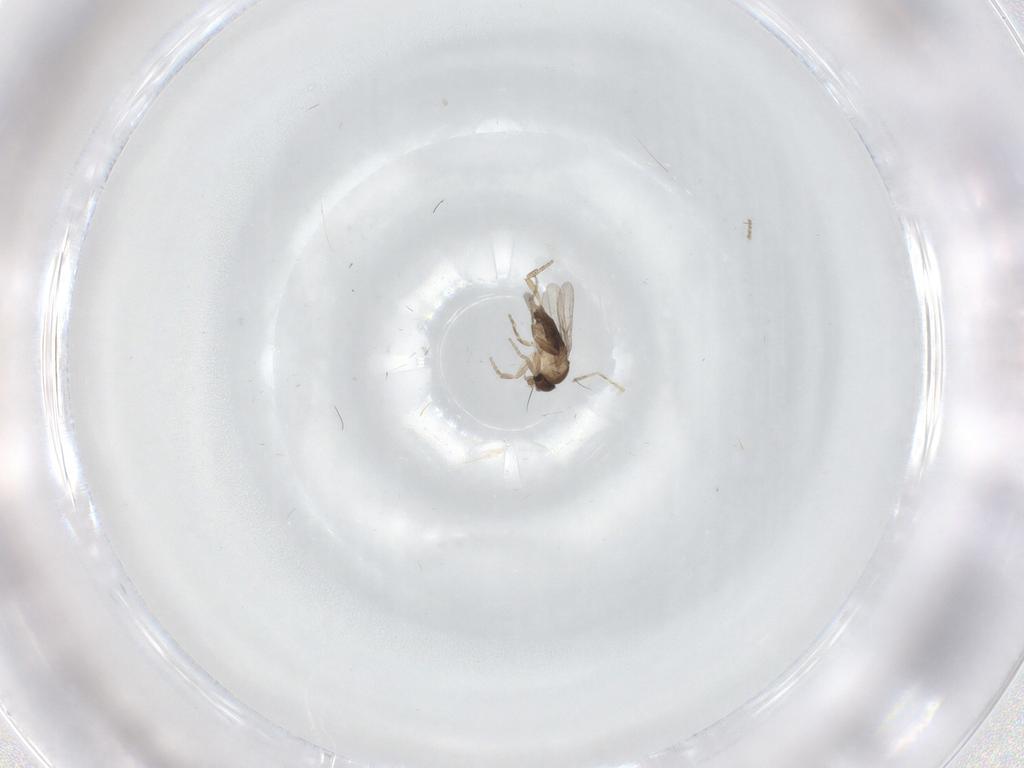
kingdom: Animalia
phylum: Arthropoda
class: Insecta
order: Diptera
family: Cecidomyiidae
